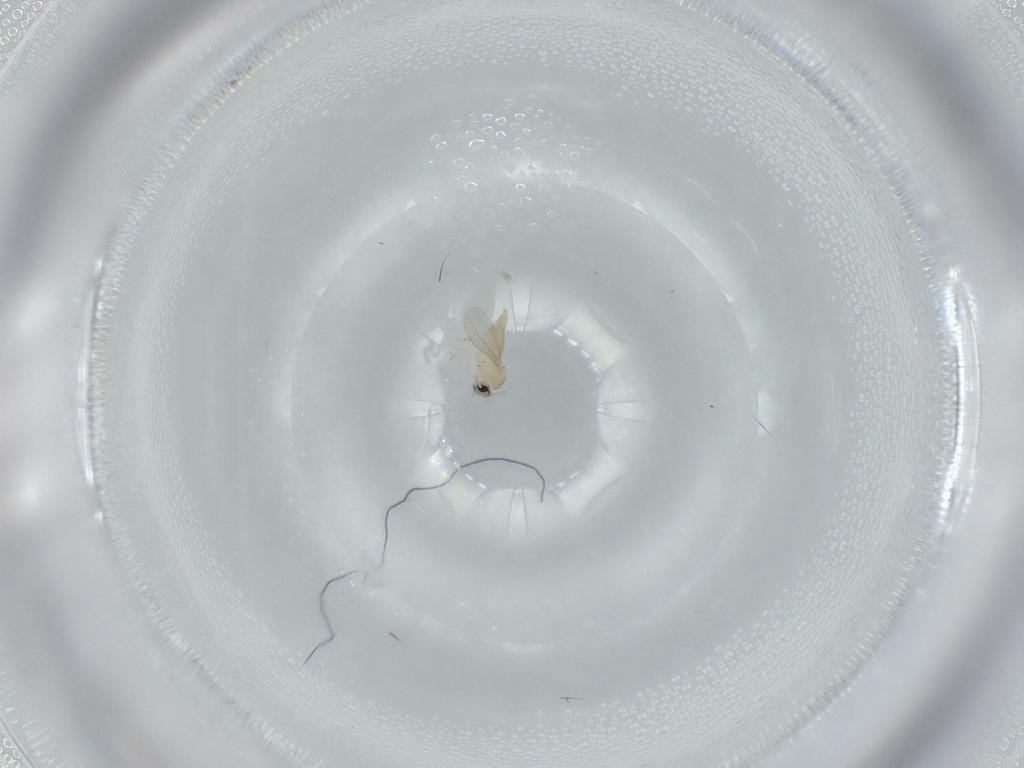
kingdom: Animalia
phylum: Arthropoda
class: Insecta
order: Diptera
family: Cecidomyiidae
